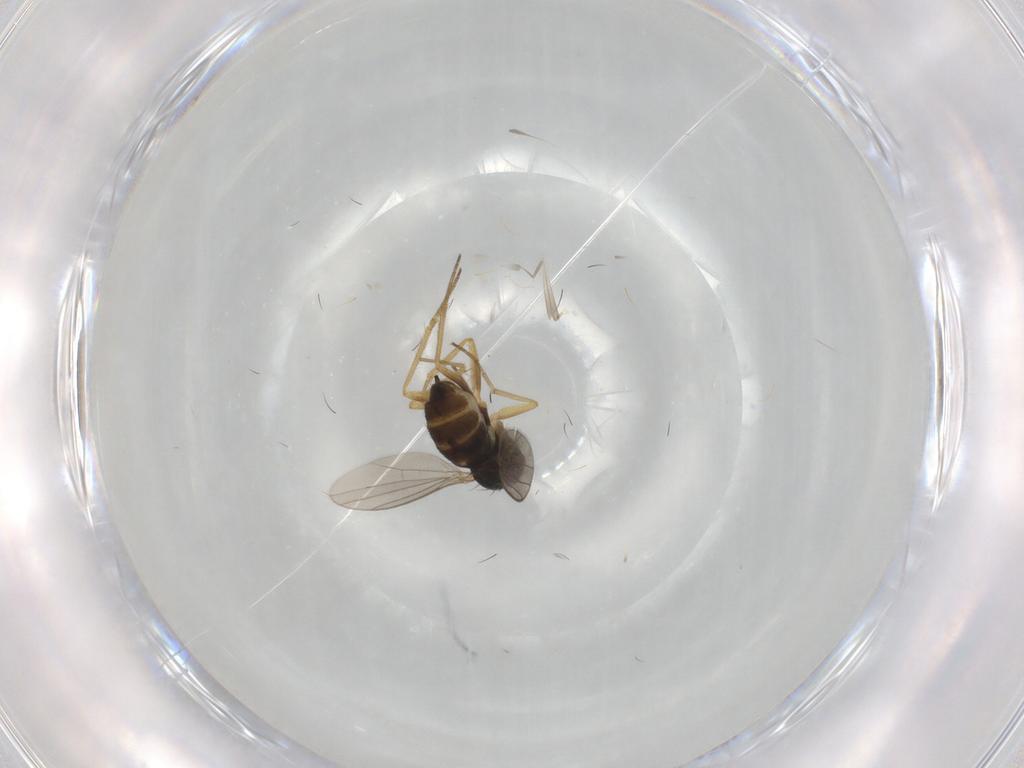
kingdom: Animalia
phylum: Arthropoda
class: Insecta
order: Diptera
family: Dolichopodidae
